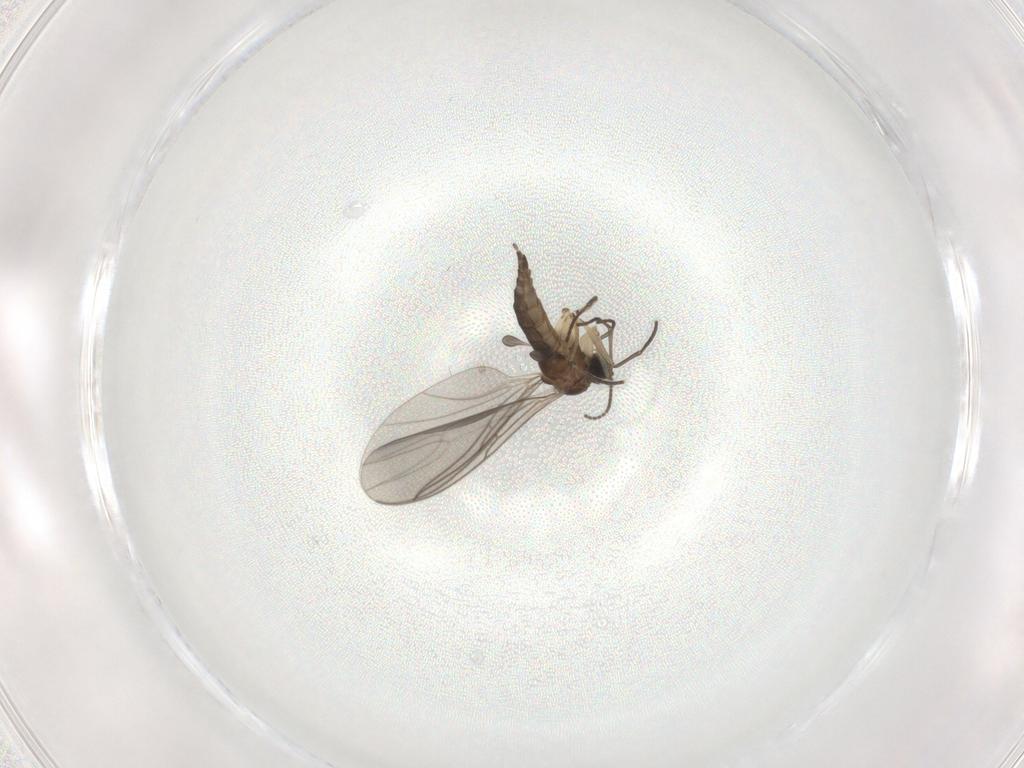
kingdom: Animalia
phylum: Arthropoda
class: Insecta
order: Diptera
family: Sciaridae
